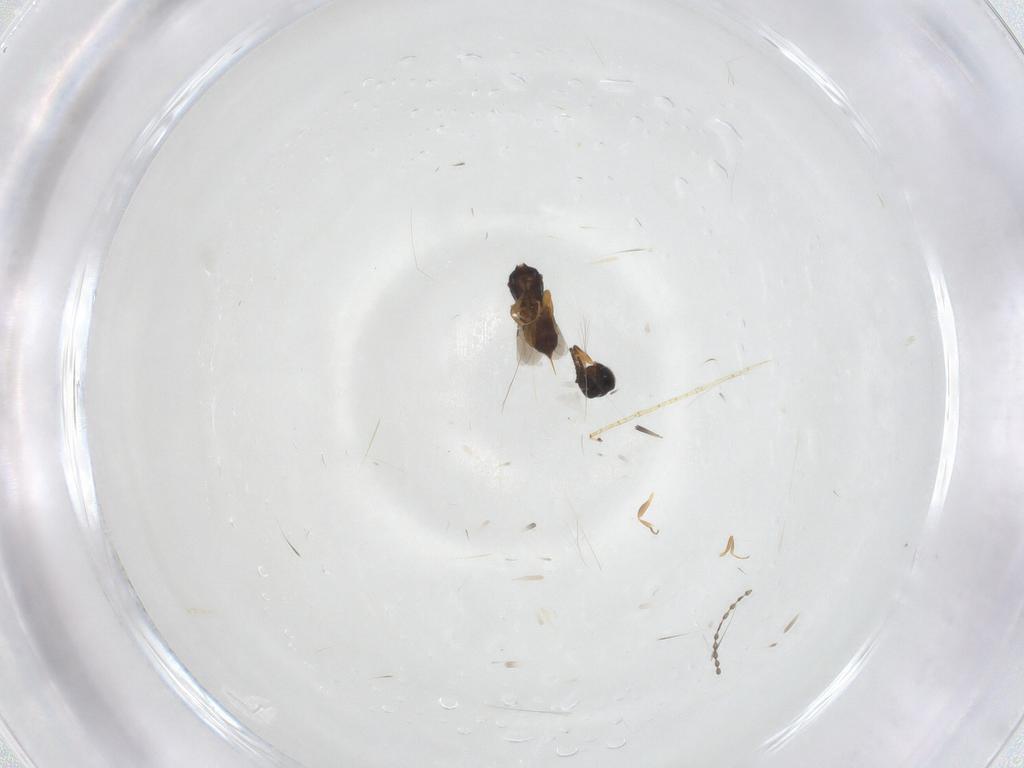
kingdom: Animalia
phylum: Arthropoda
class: Insecta
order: Hymenoptera
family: Ceraphronidae
